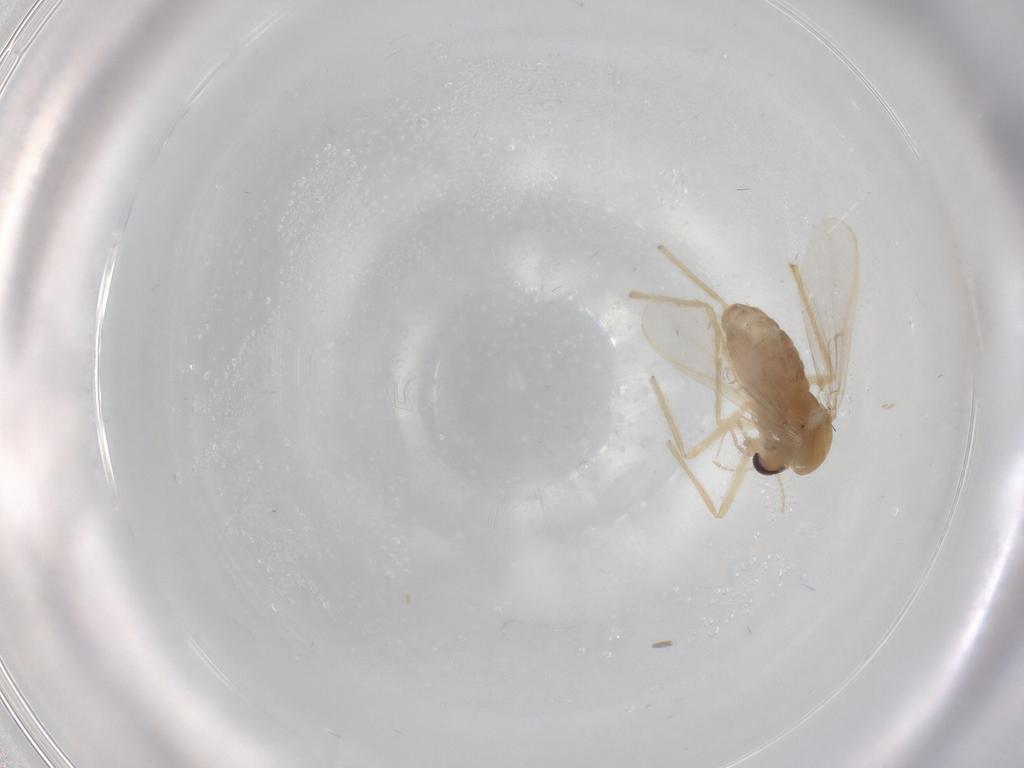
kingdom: Animalia
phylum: Arthropoda
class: Insecta
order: Diptera
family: Chironomidae
